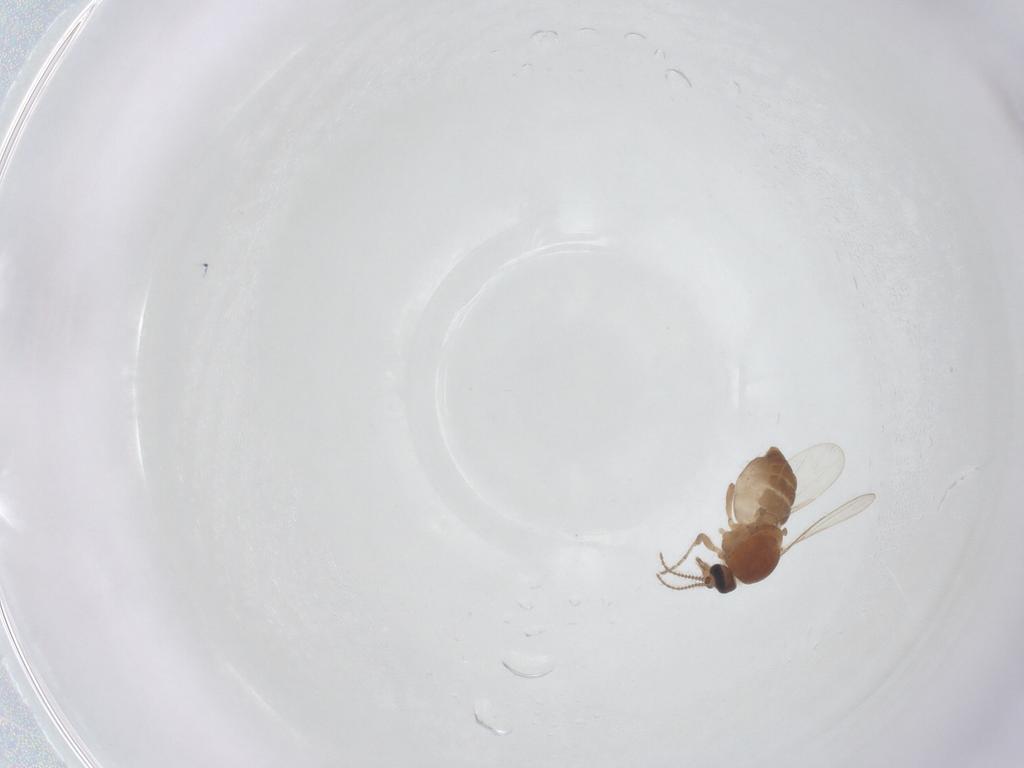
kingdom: Animalia
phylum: Arthropoda
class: Insecta
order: Diptera
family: Ceratopogonidae
